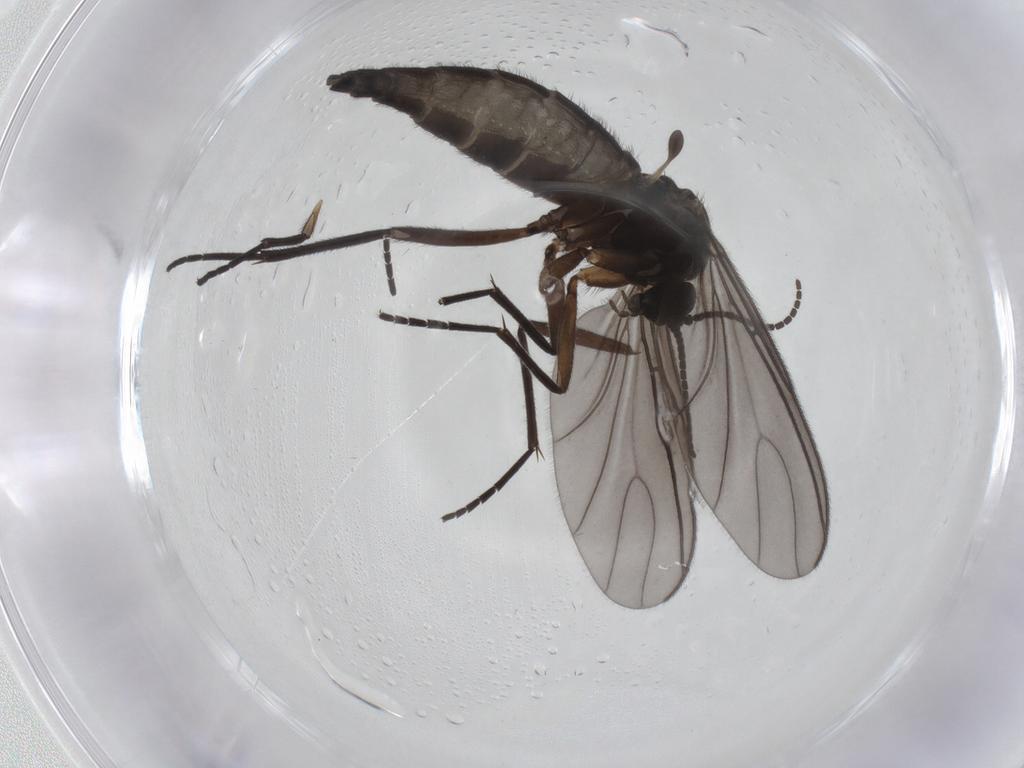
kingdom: Animalia
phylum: Arthropoda
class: Insecta
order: Diptera
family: Sciaridae
